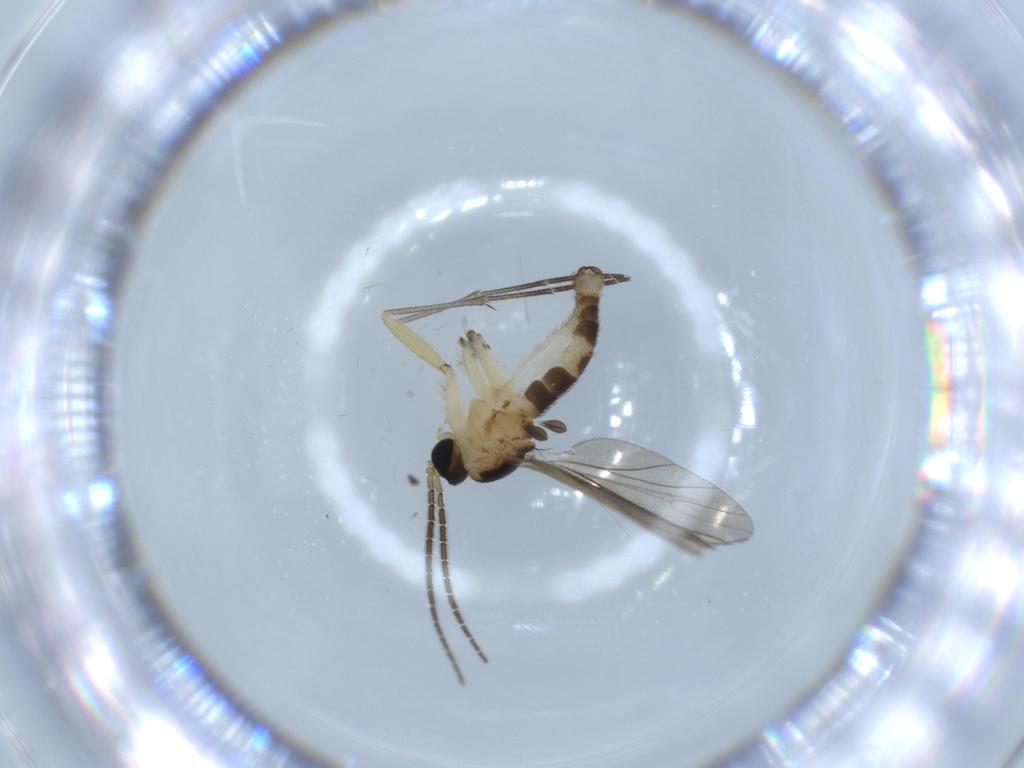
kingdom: Animalia
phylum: Arthropoda
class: Insecta
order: Diptera
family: Sciaridae
